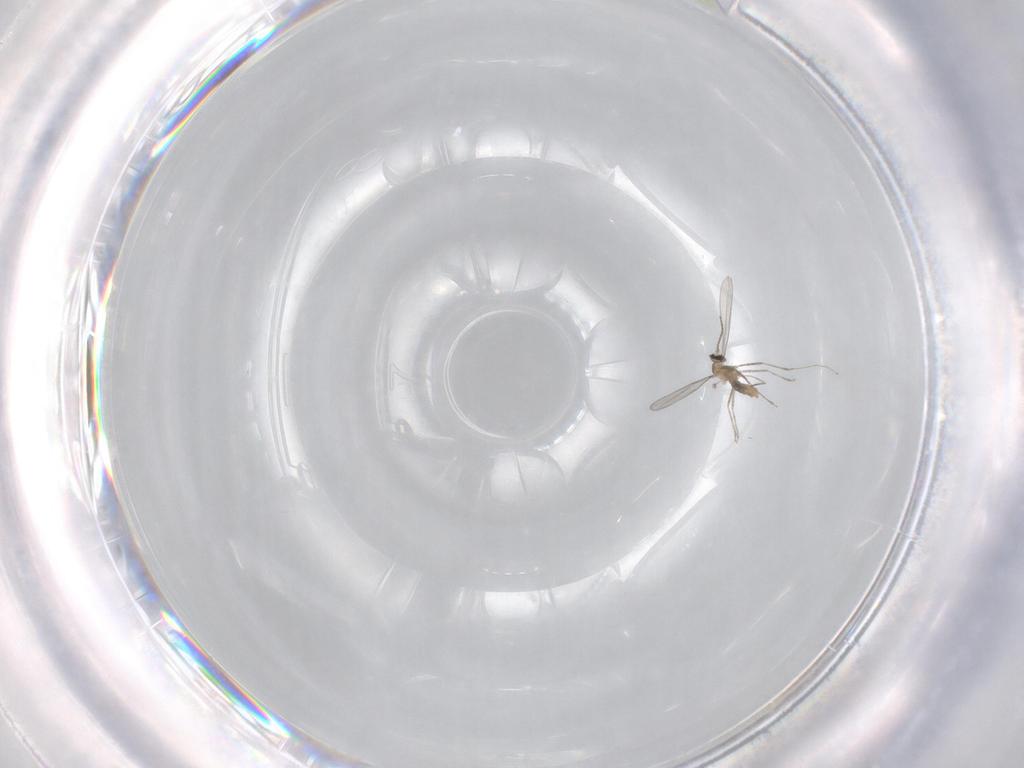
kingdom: Animalia
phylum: Arthropoda
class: Insecta
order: Diptera
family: Ceratopogonidae
